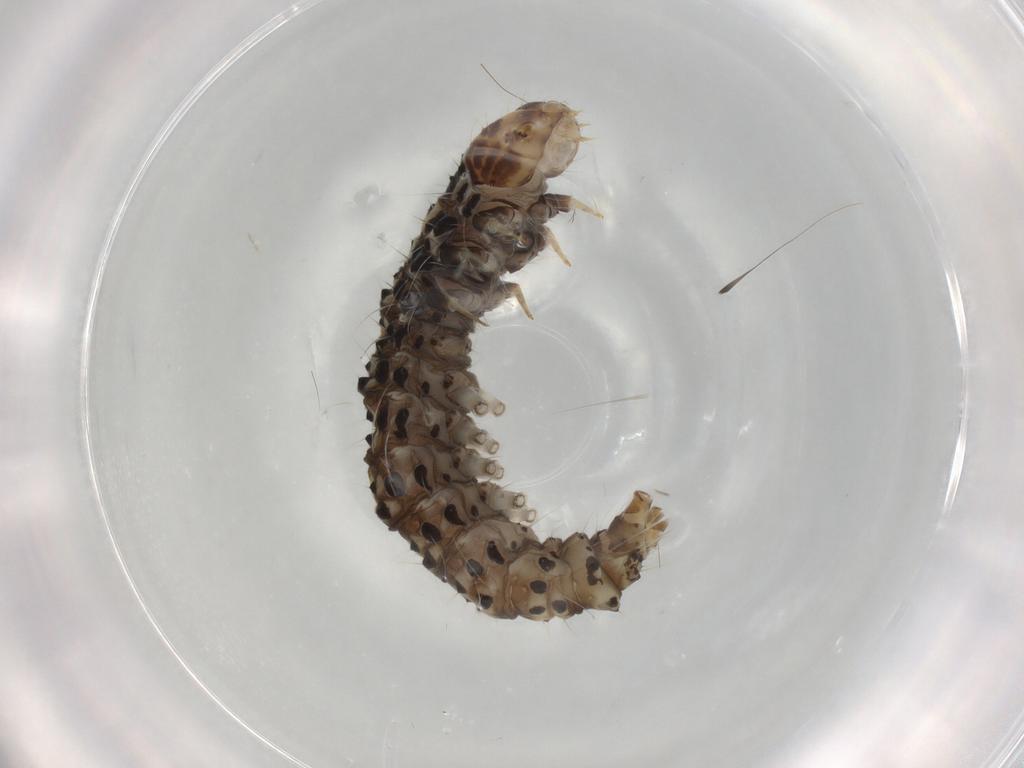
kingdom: Animalia
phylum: Arthropoda
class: Insecta
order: Lepidoptera
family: Choreutidae
